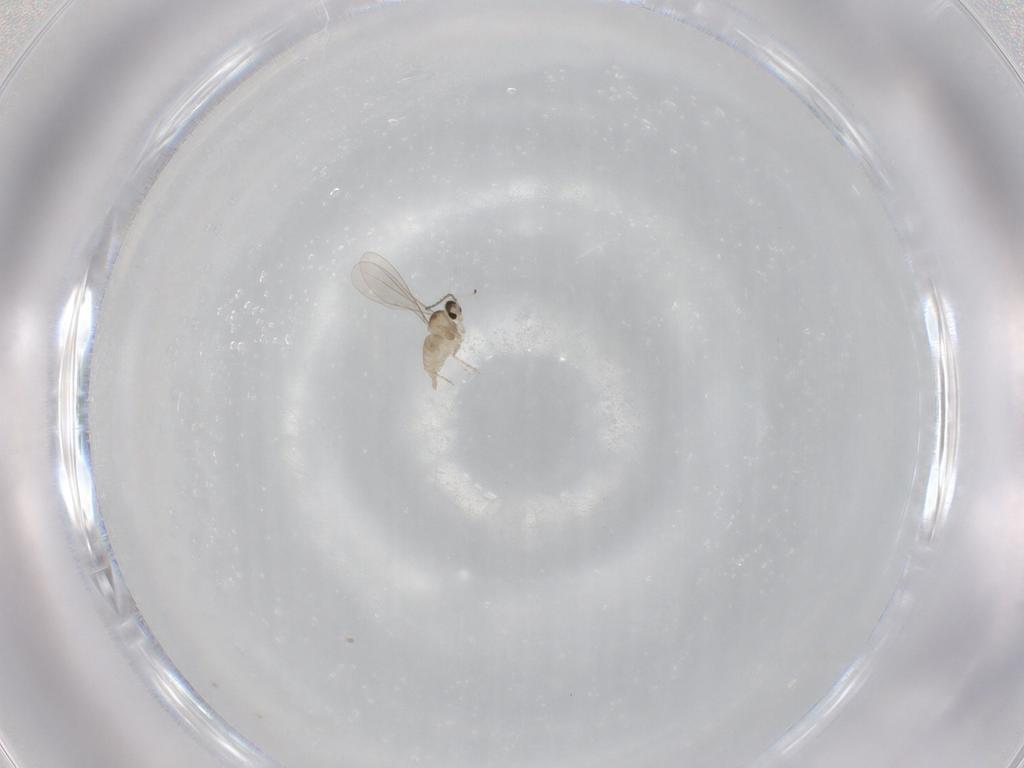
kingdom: Animalia
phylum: Arthropoda
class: Insecta
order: Diptera
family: Cecidomyiidae
